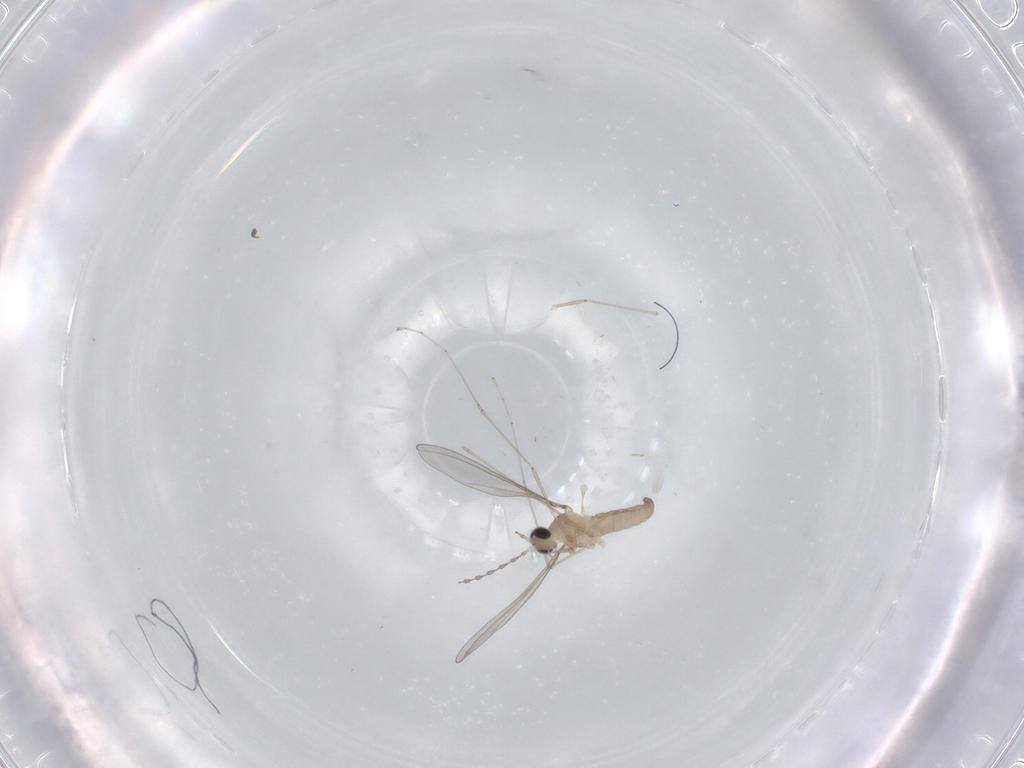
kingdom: Animalia
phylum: Arthropoda
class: Insecta
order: Diptera
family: Cecidomyiidae
